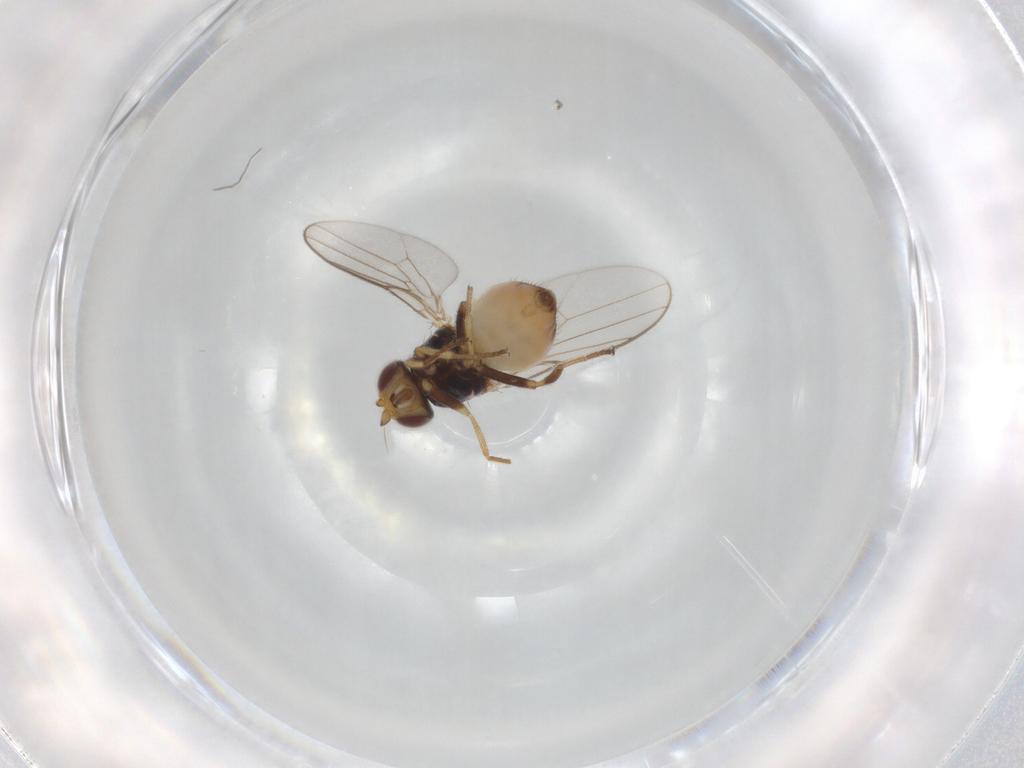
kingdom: Animalia
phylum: Arthropoda
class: Insecta
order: Diptera
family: Chloropidae
